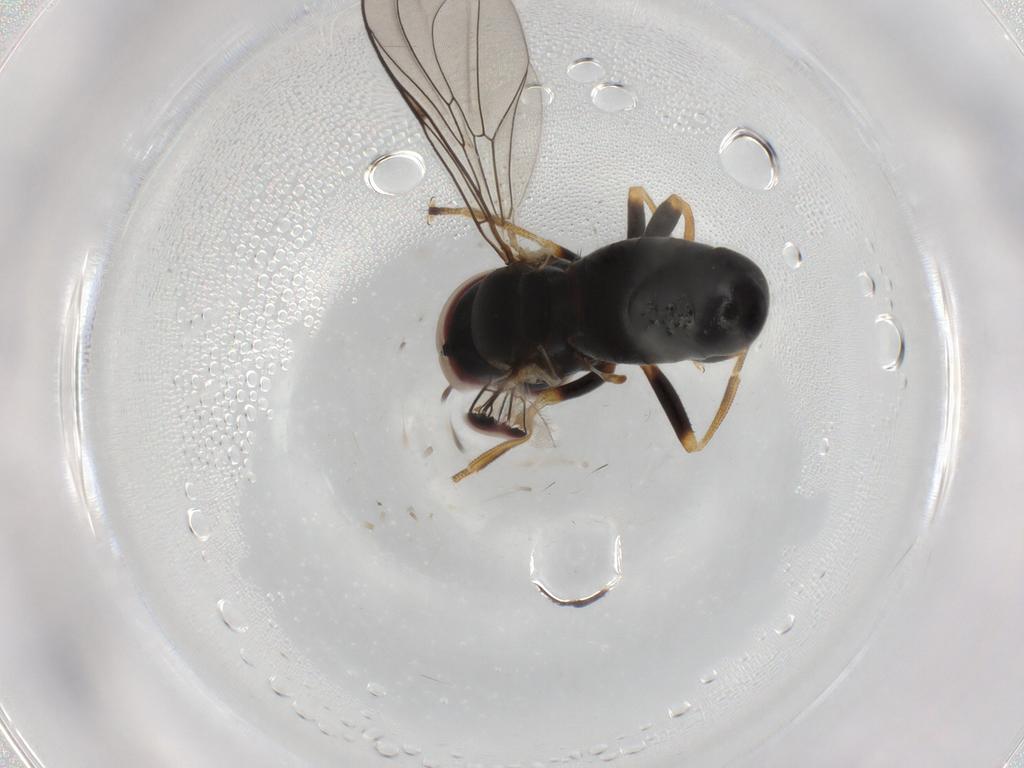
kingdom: Animalia
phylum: Arthropoda
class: Insecta
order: Diptera
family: Pipunculidae
